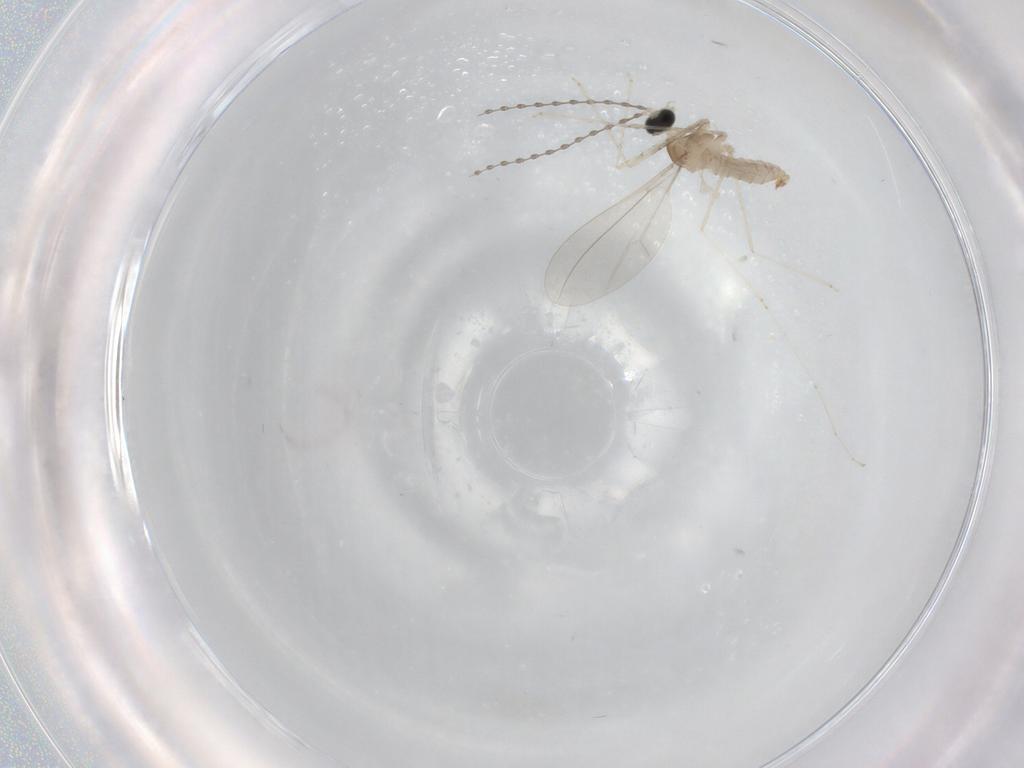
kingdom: Animalia
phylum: Arthropoda
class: Insecta
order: Diptera
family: Cecidomyiidae
